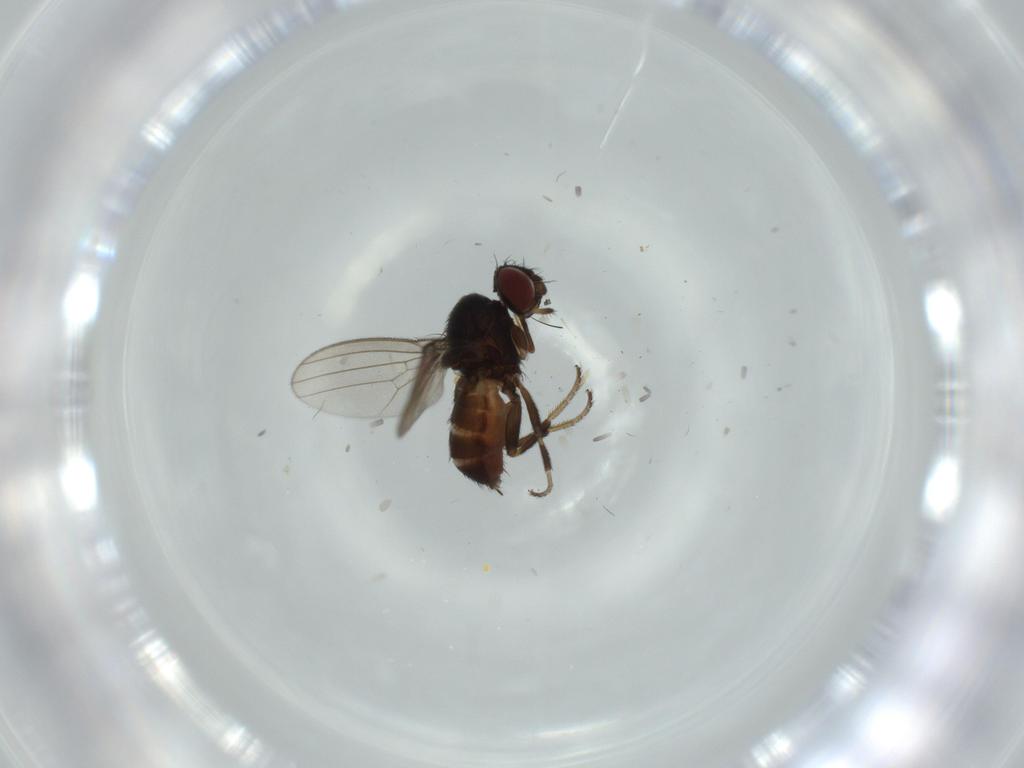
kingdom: Animalia
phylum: Arthropoda
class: Insecta
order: Diptera
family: Milichiidae
